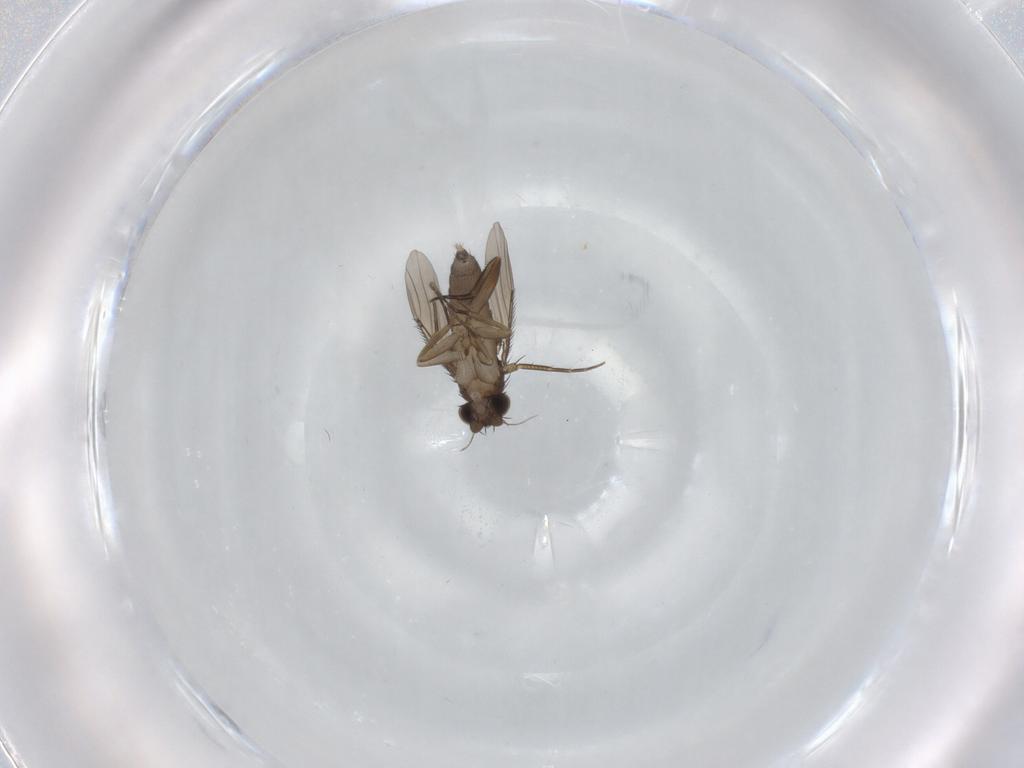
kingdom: Animalia
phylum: Arthropoda
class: Insecta
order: Diptera
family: Phoridae
